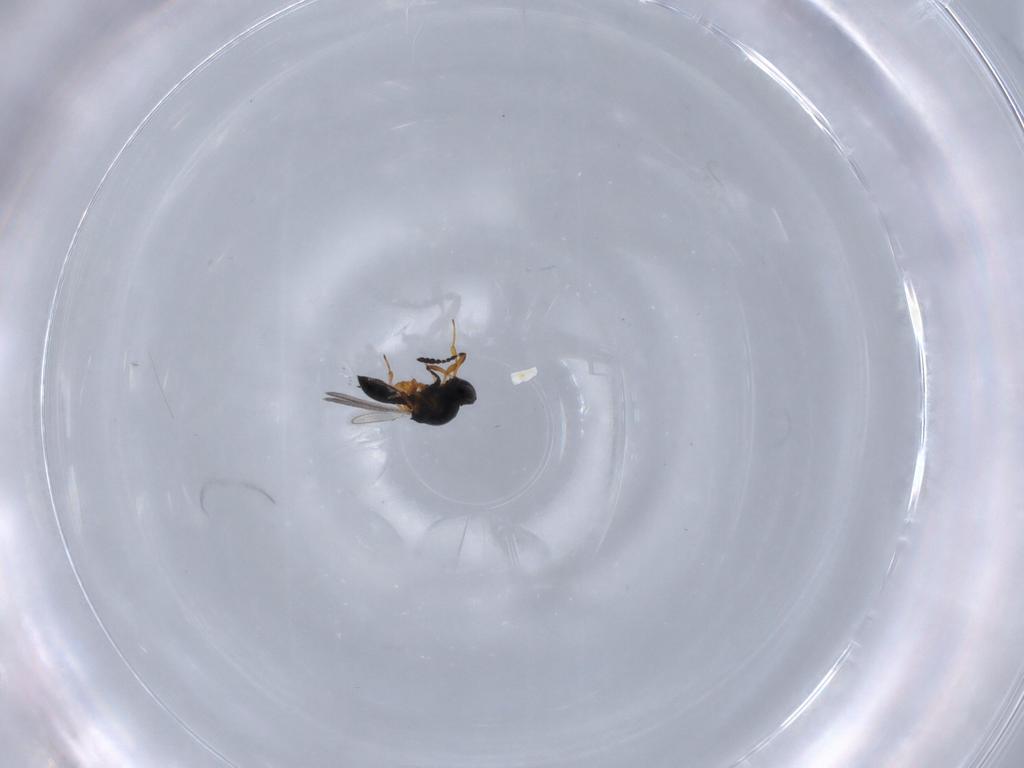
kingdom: Animalia
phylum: Arthropoda
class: Insecta
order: Hymenoptera
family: Platygastridae
